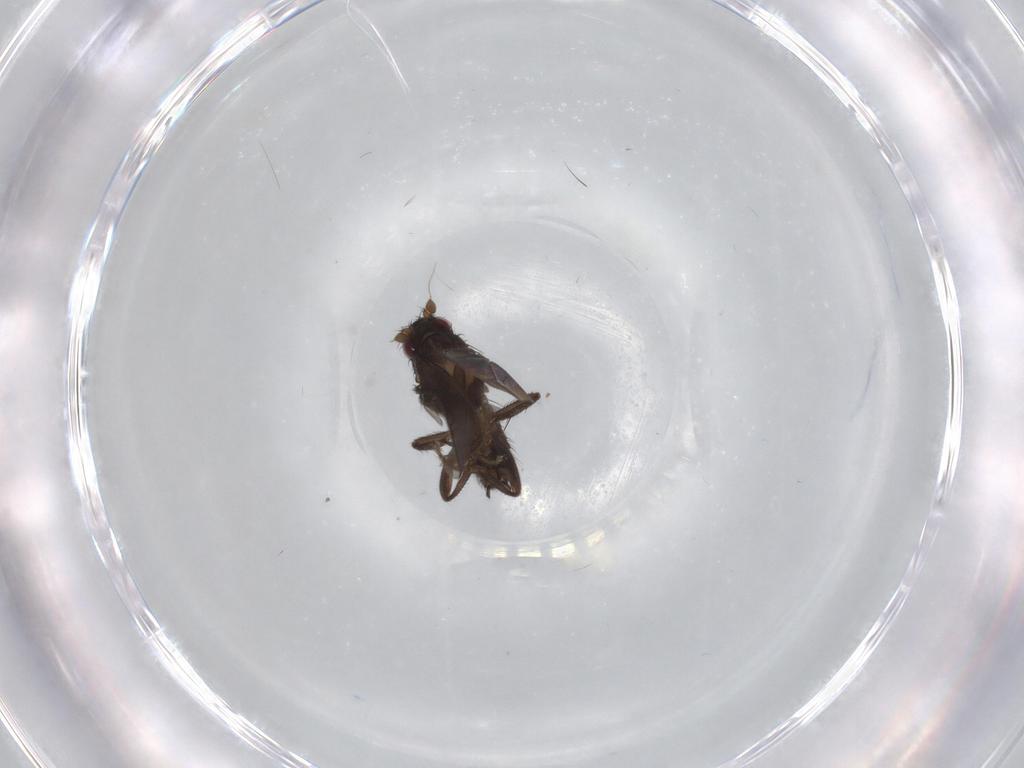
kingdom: Animalia
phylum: Arthropoda
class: Insecta
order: Diptera
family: Sphaeroceridae
